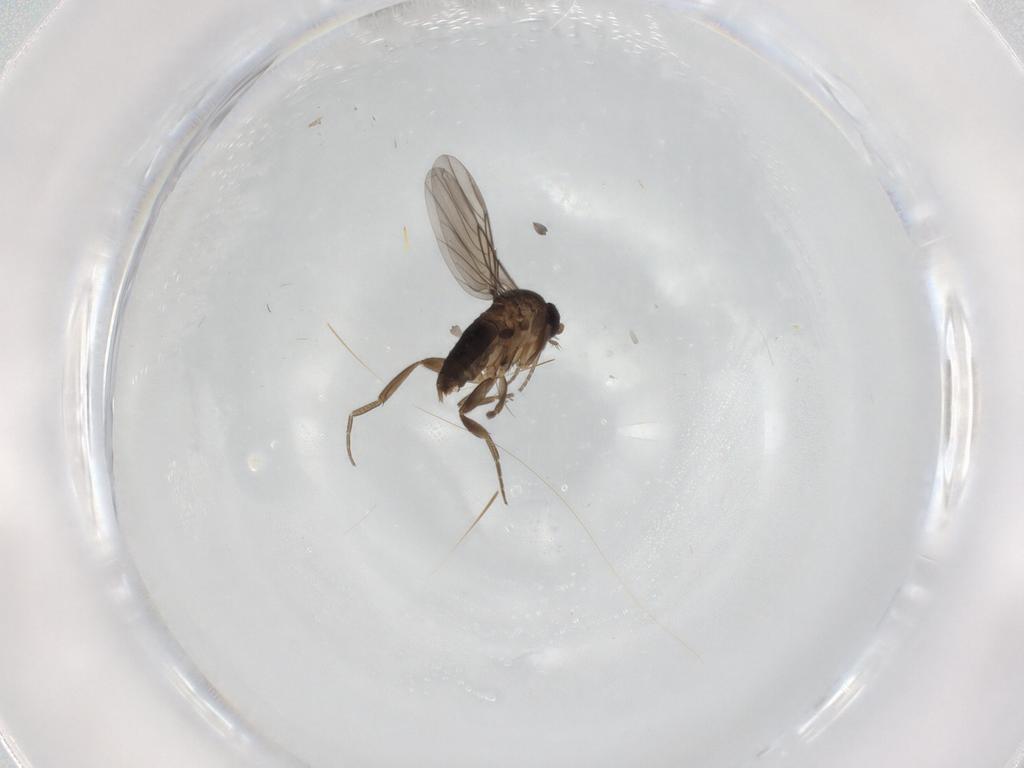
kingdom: Animalia
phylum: Arthropoda
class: Insecta
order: Diptera
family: Phoridae
